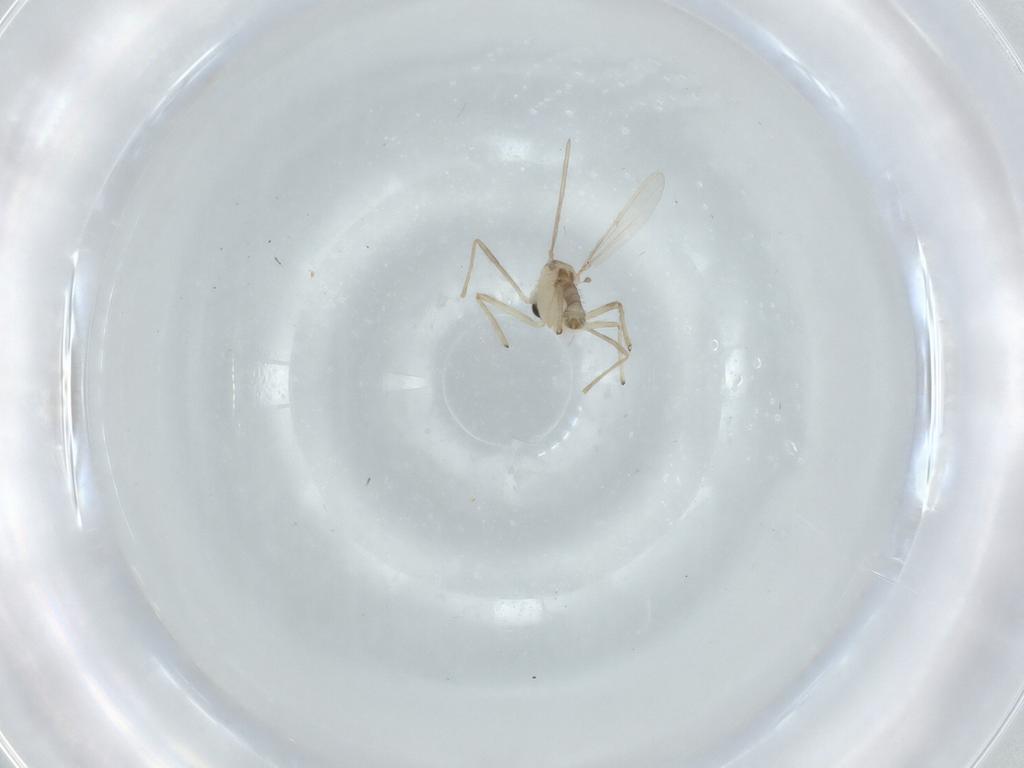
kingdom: Animalia
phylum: Arthropoda
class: Insecta
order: Diptera
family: Chironomidae
